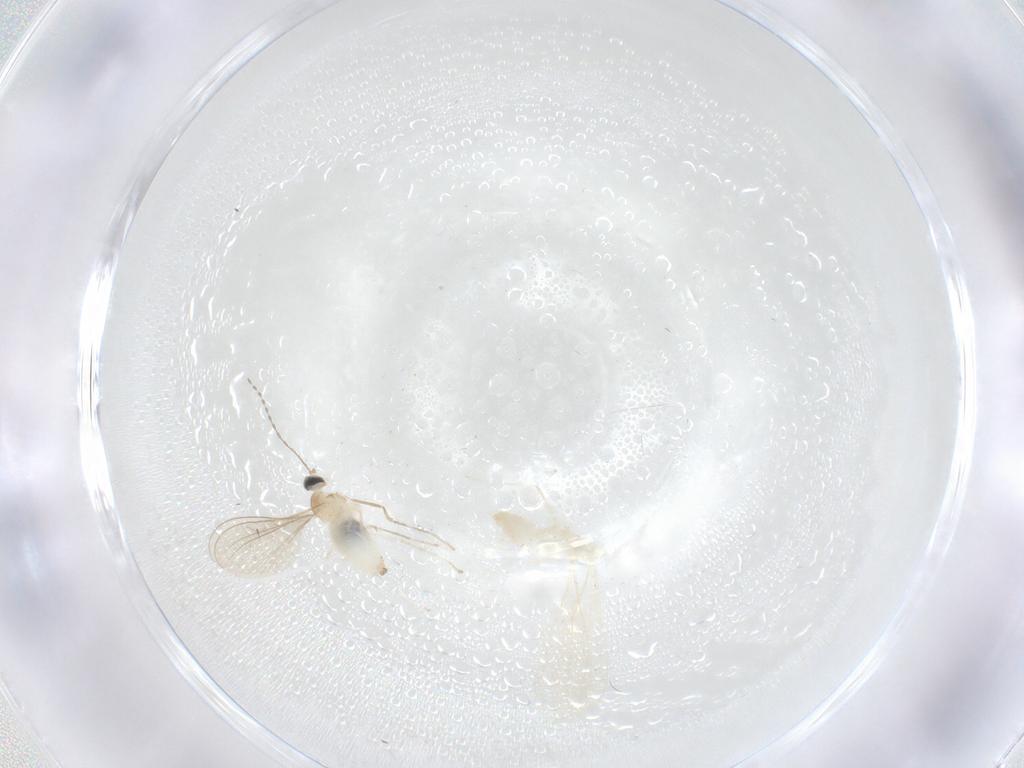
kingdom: Animalia
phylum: Arthropoda
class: Insecta
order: Diptera
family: Cecidomyiidae
